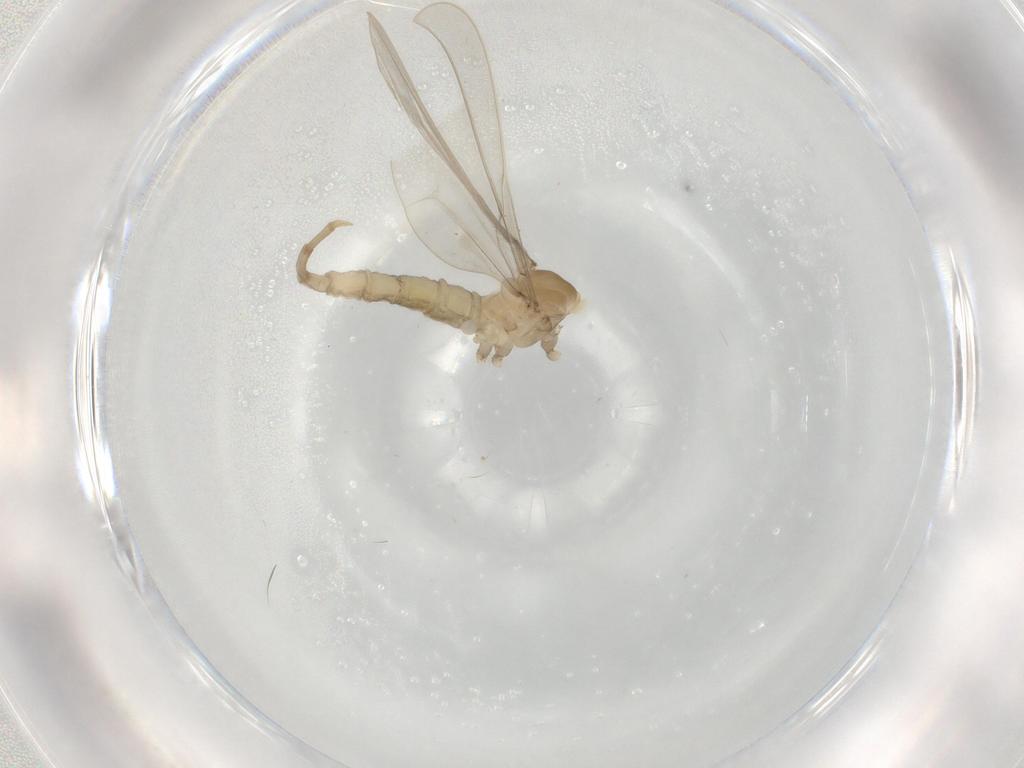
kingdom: Animalia
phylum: Arthropoda
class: Insecta
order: Diptera
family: Cecidomyiidae
